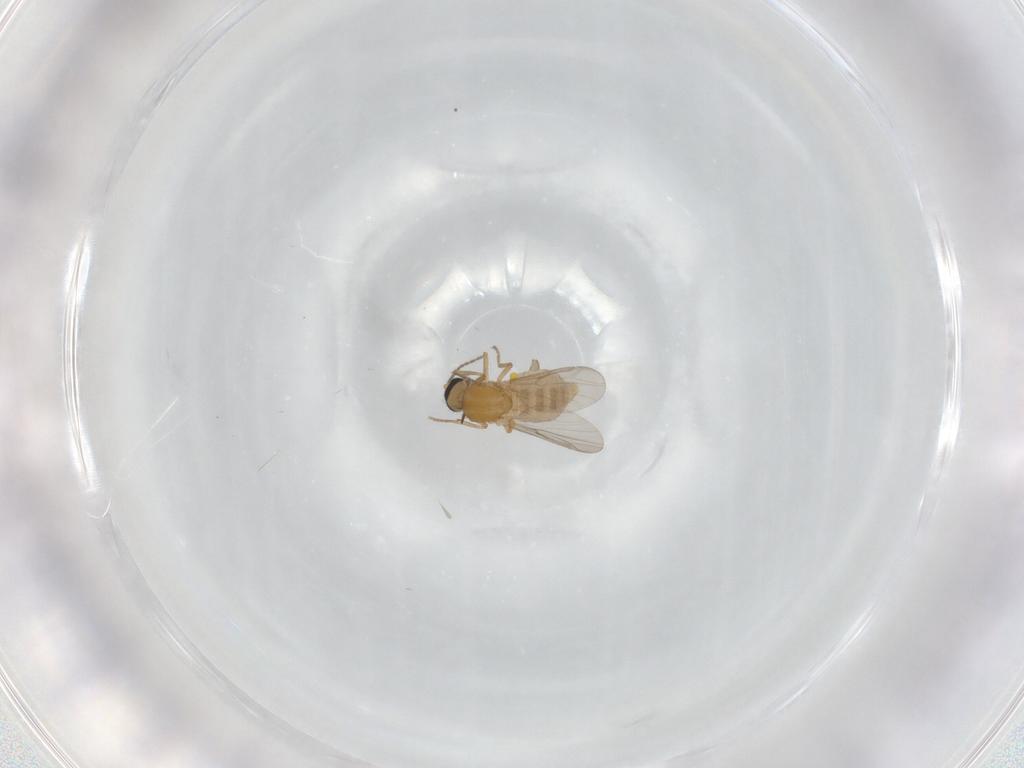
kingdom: Animalia
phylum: Arthropoda
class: Insecta
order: Diptera
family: Ceratopogonidae
